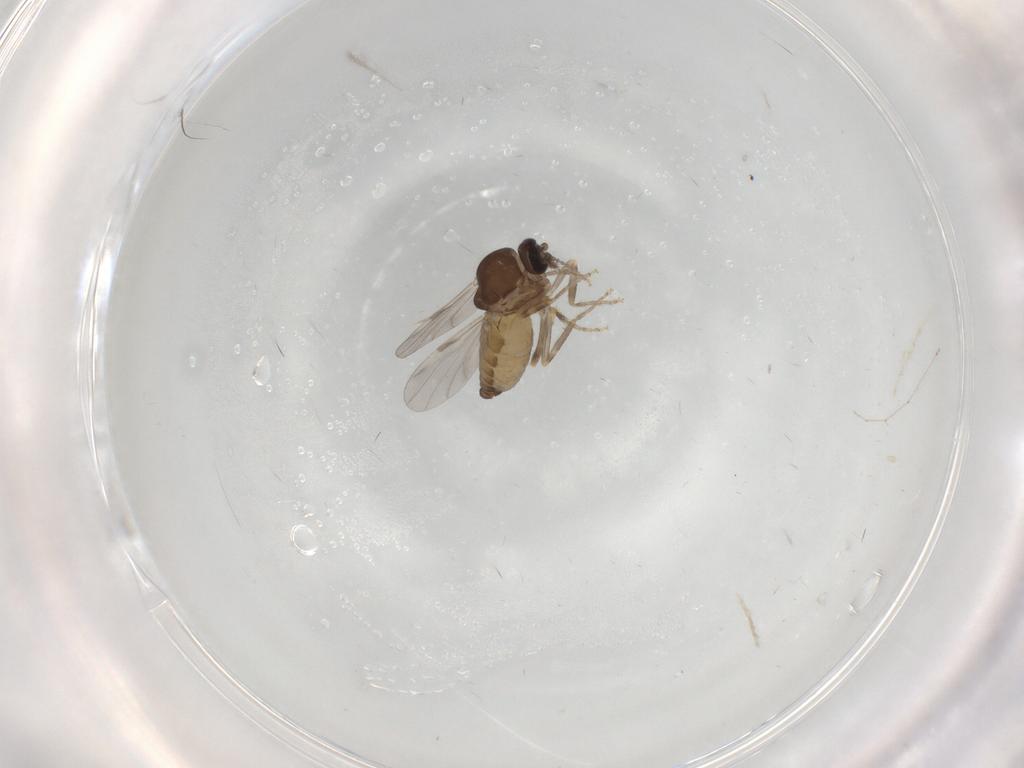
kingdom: Animalia
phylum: Arthropoda
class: Insecta
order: Diptera
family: Ceratopogonidae
